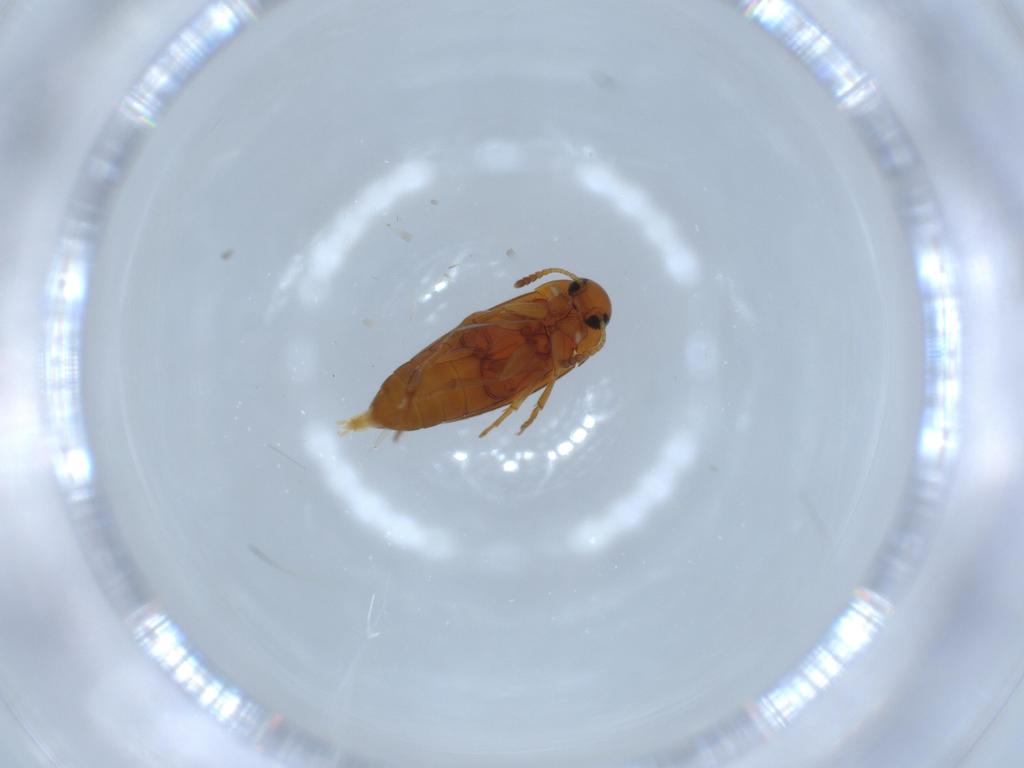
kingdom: Animalia
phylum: Arthropoda
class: Insecta
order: Coleoptera
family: Scraptiidae
